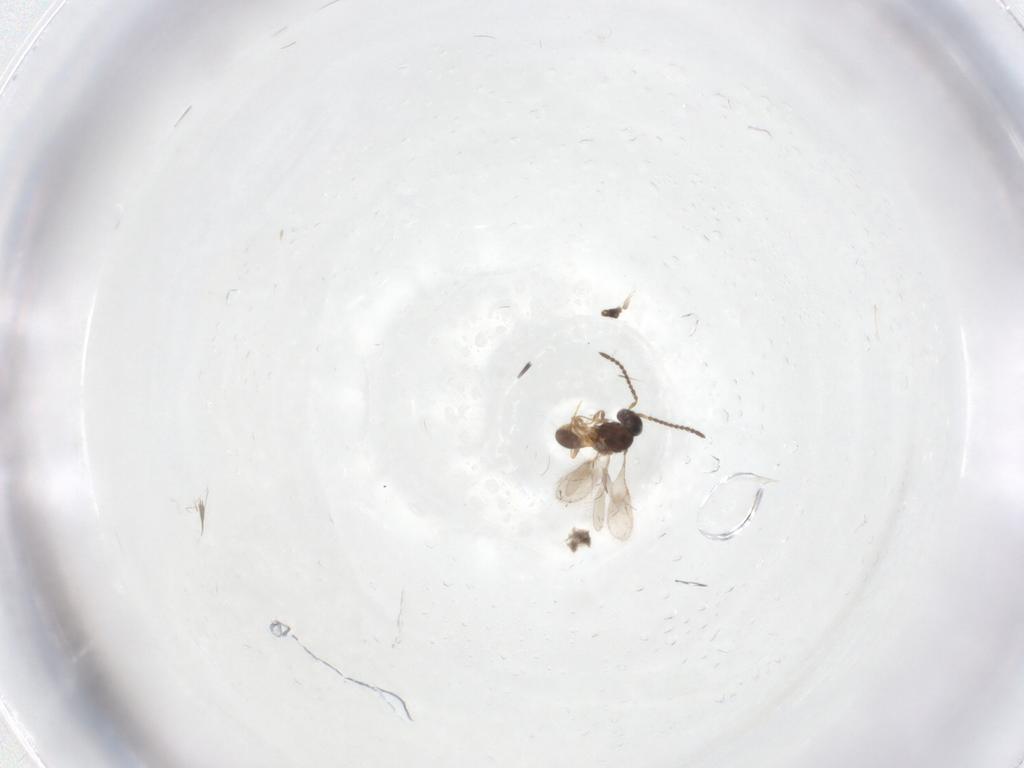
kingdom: Animalia
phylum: Arthropoda
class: Insecta
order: Hymenoptera
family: Scelionidae
